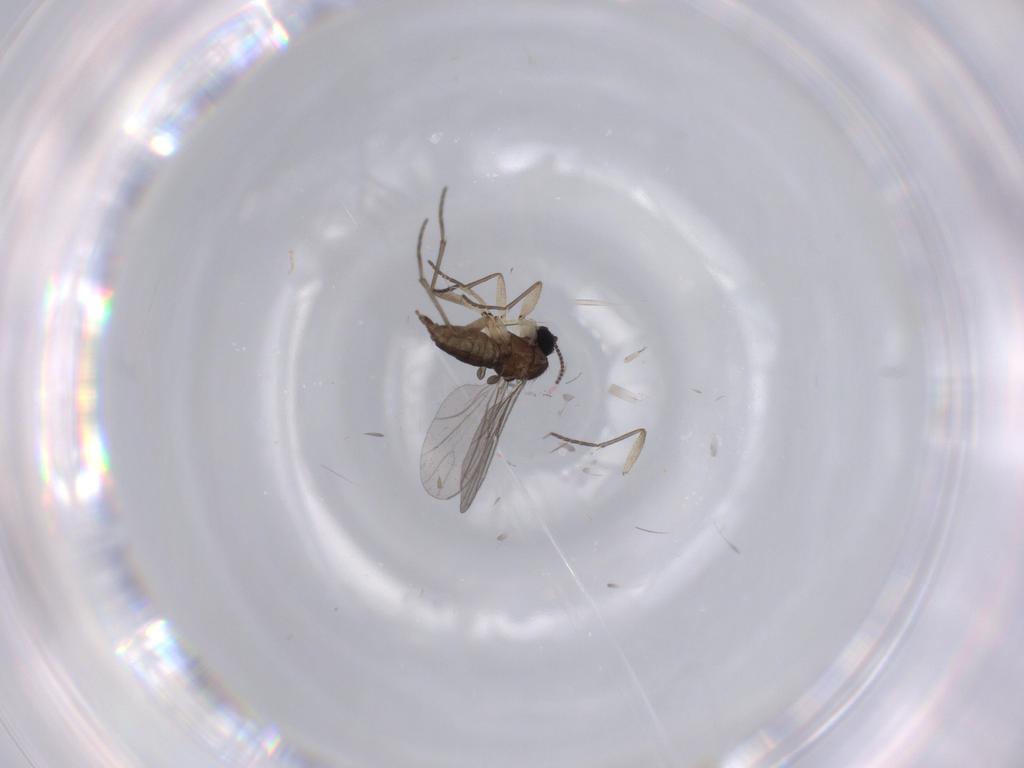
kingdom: Animalia
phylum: Arthropoda
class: Insecta
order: Diptera
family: Sciaridae
